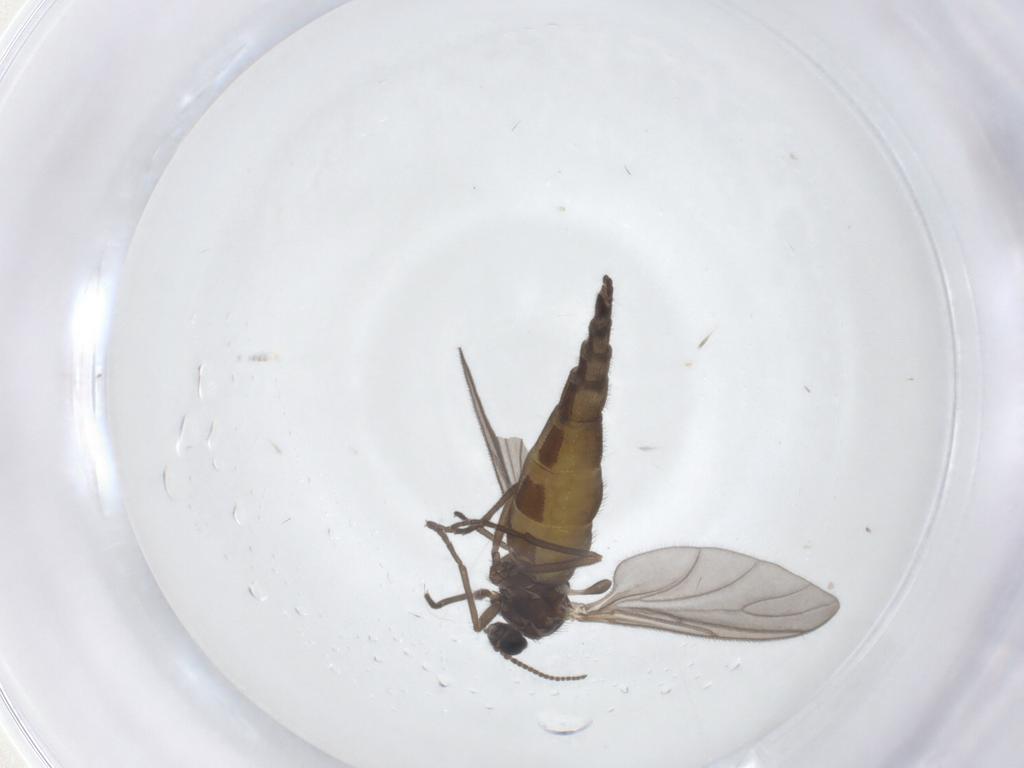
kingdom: Animalia
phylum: Arthropoda
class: Insecta
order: Diptera
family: Sciaridae
